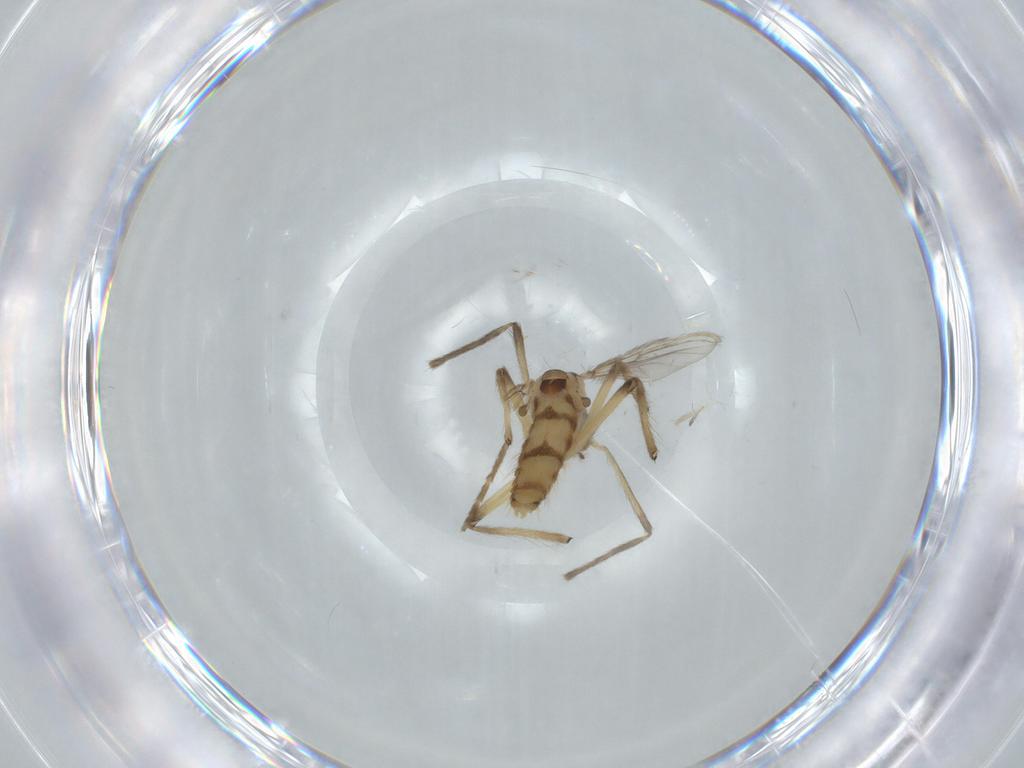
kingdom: Animalia
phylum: Arthropoda
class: Insecta
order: Diptera
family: Chironomidae
